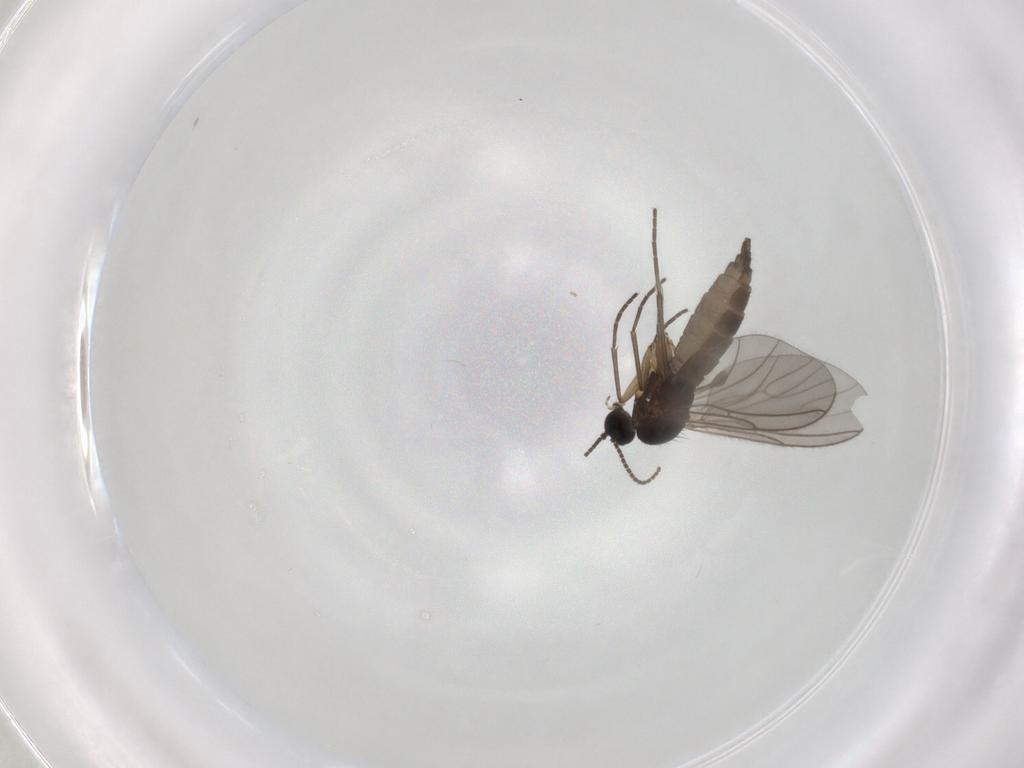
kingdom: Animalia
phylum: Arthropoda
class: Insecta
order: Diptera
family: Sciaridae
